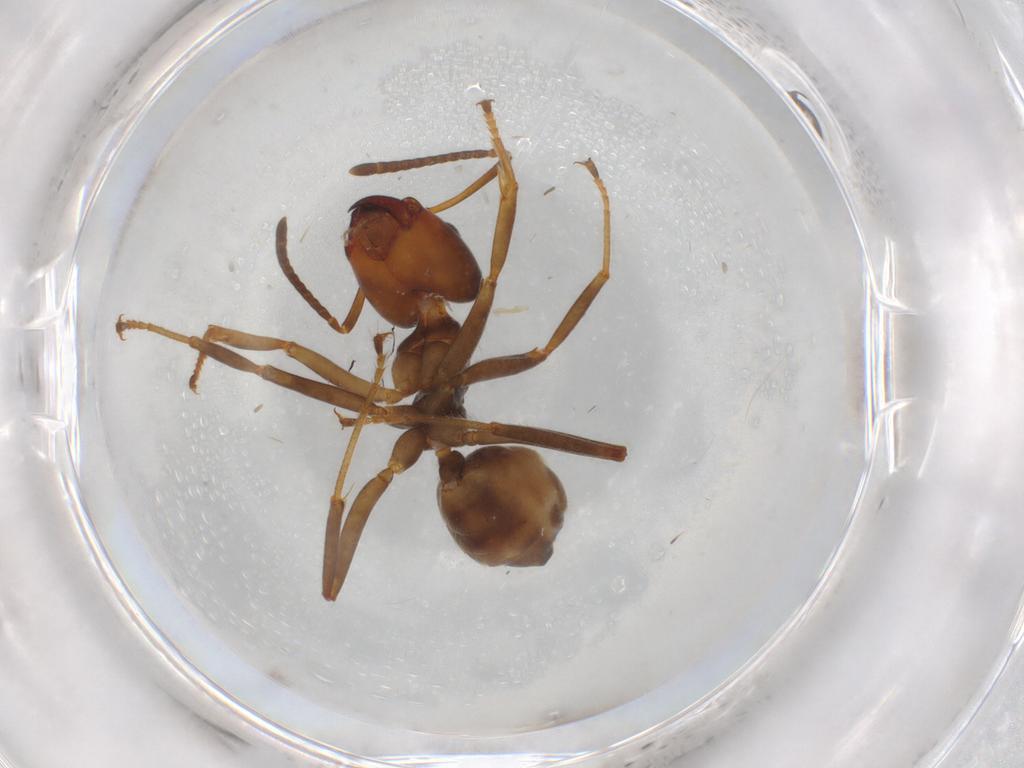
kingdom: Animalia
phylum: Arthropoda
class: Insecta
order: Hymenoptera
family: Formicidae
